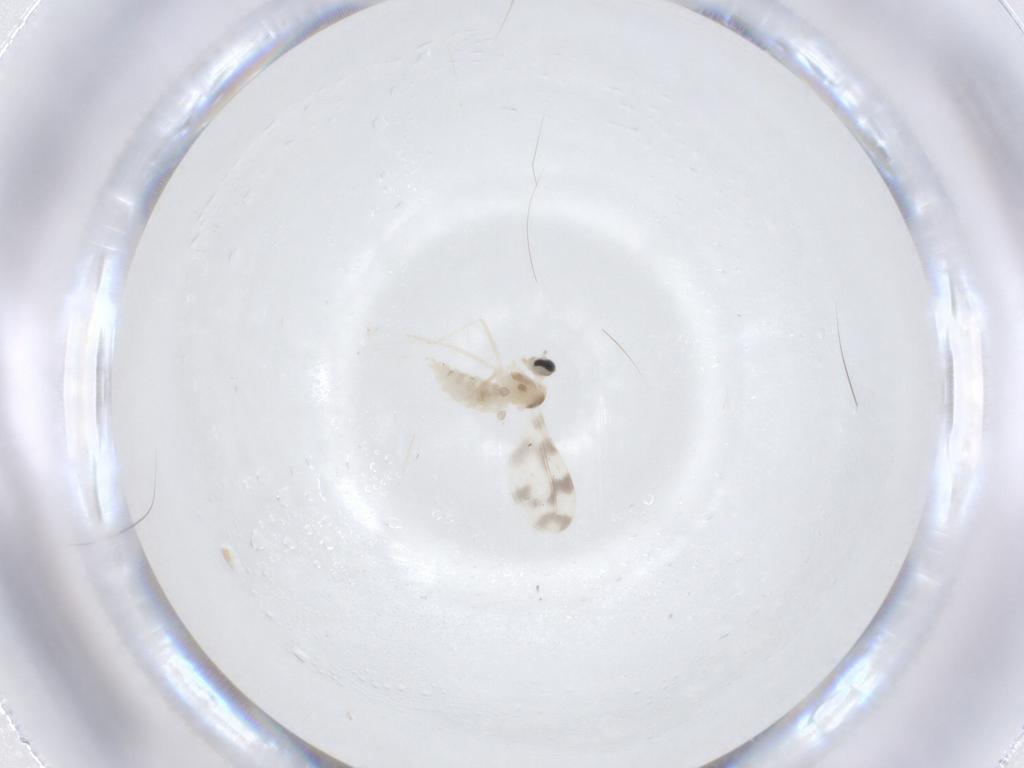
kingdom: Animalia
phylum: Arthropoda
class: Insecta
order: Diptera
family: Cecidomyiidae
